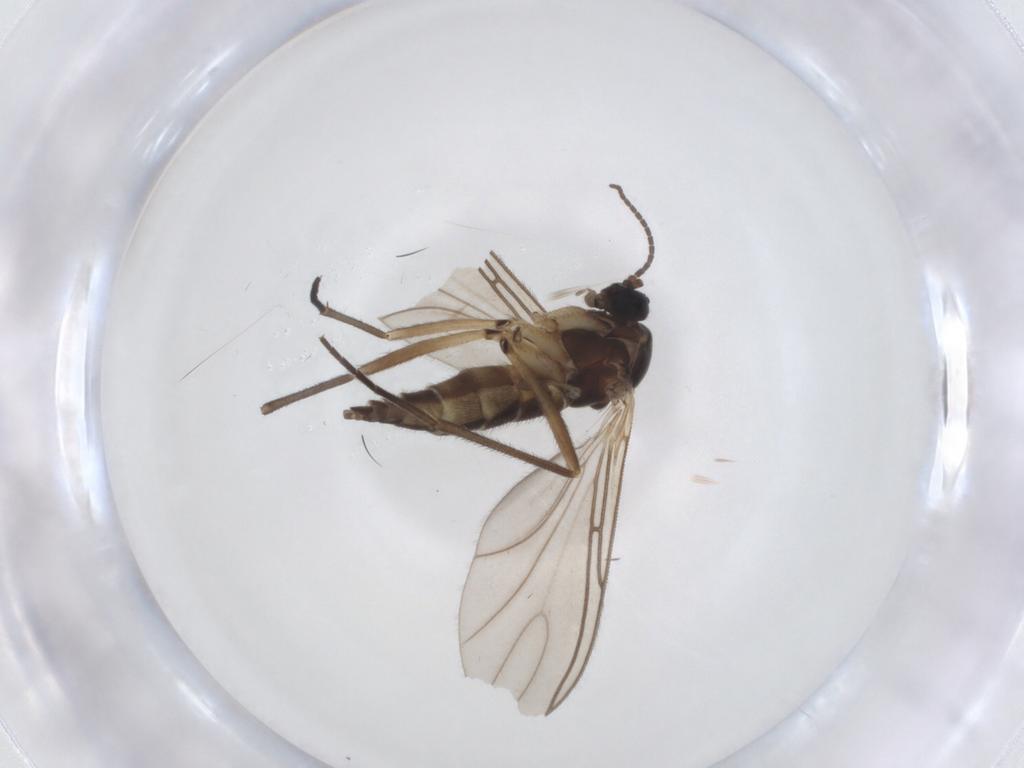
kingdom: Animalia
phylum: Arthropoda
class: Insecta
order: Diptera
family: Sciaridae
